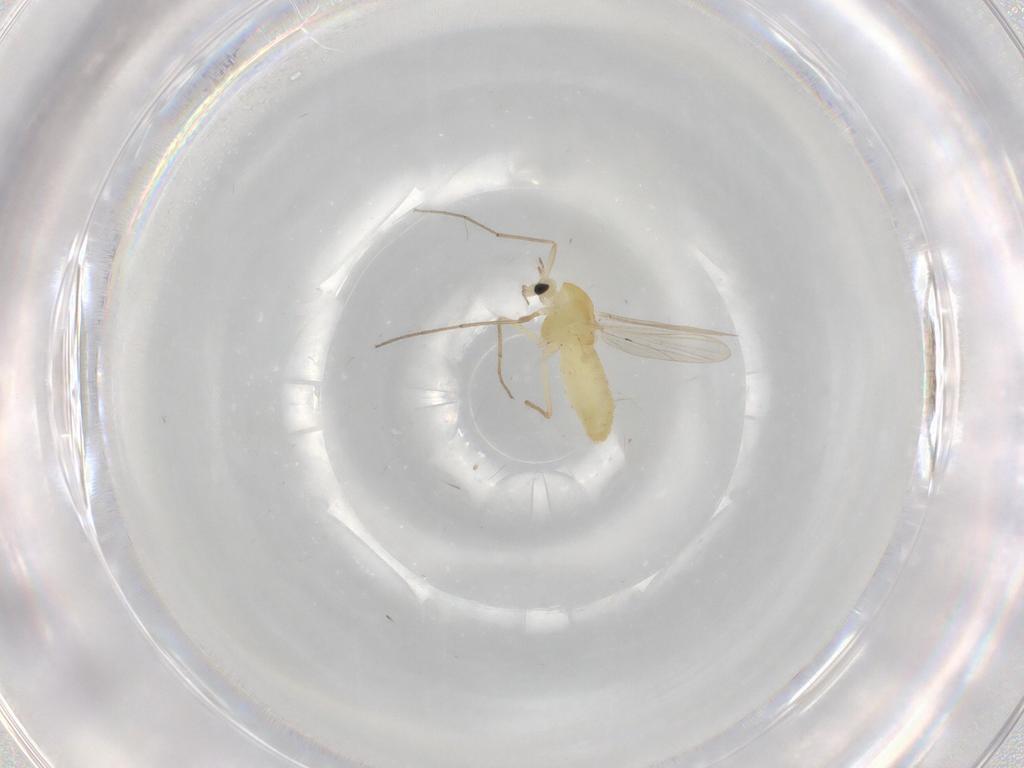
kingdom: Animalia
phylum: Arthropoda
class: Insecta
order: Diptera
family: Chironomidae
